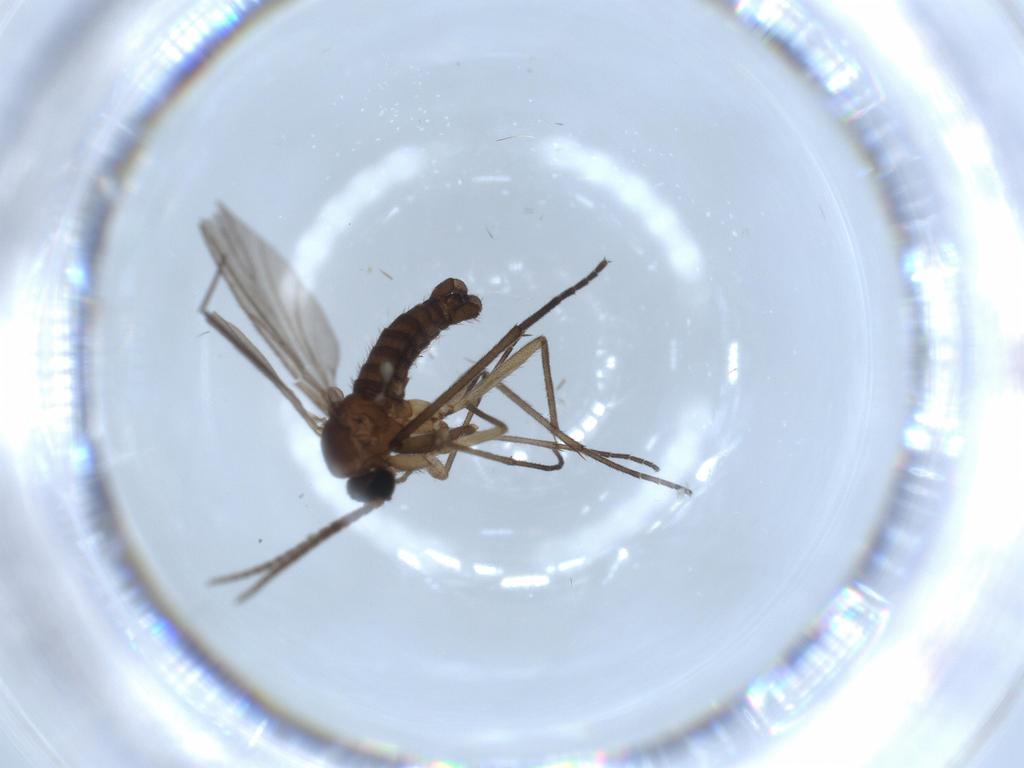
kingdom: Animalia
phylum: Arthropoda
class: Insecta
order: Diptera
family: Sciaridae
